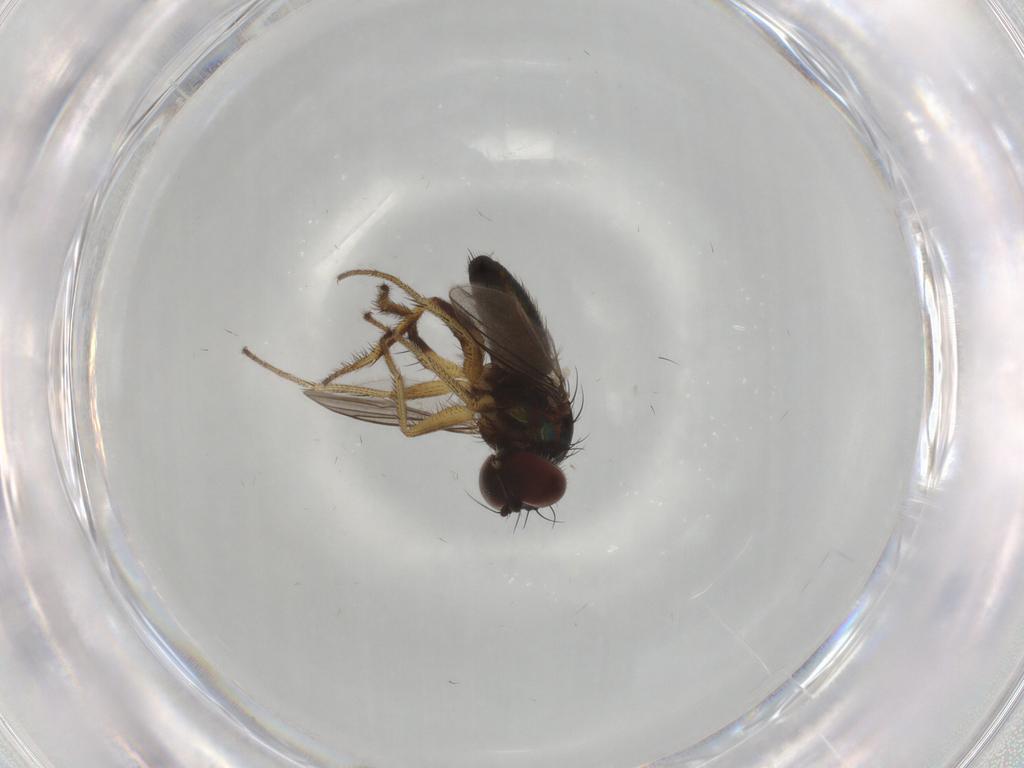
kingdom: Animalia
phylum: Arthropoda
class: Insecta
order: Diptera
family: Dolichopodidae
